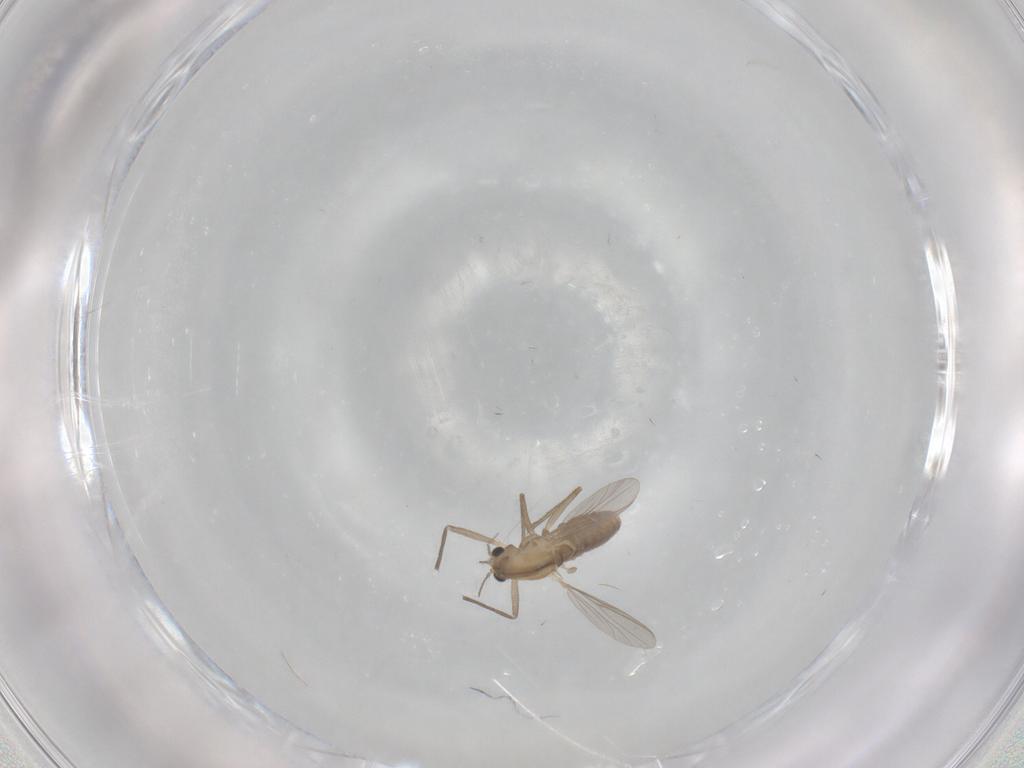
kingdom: Animalia
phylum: Arthropoda
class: Insecta
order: Diptera
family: Chironomidae
